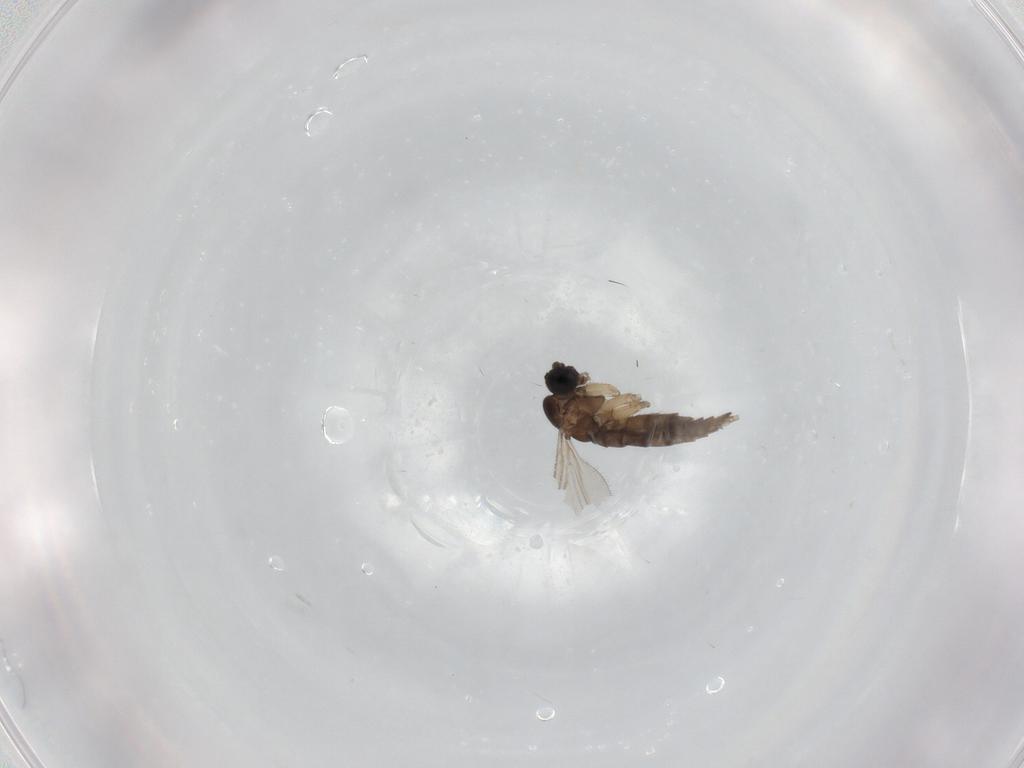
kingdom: Animalia
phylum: Arthropoda
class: Insecta
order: Diptera
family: Sciaridae
